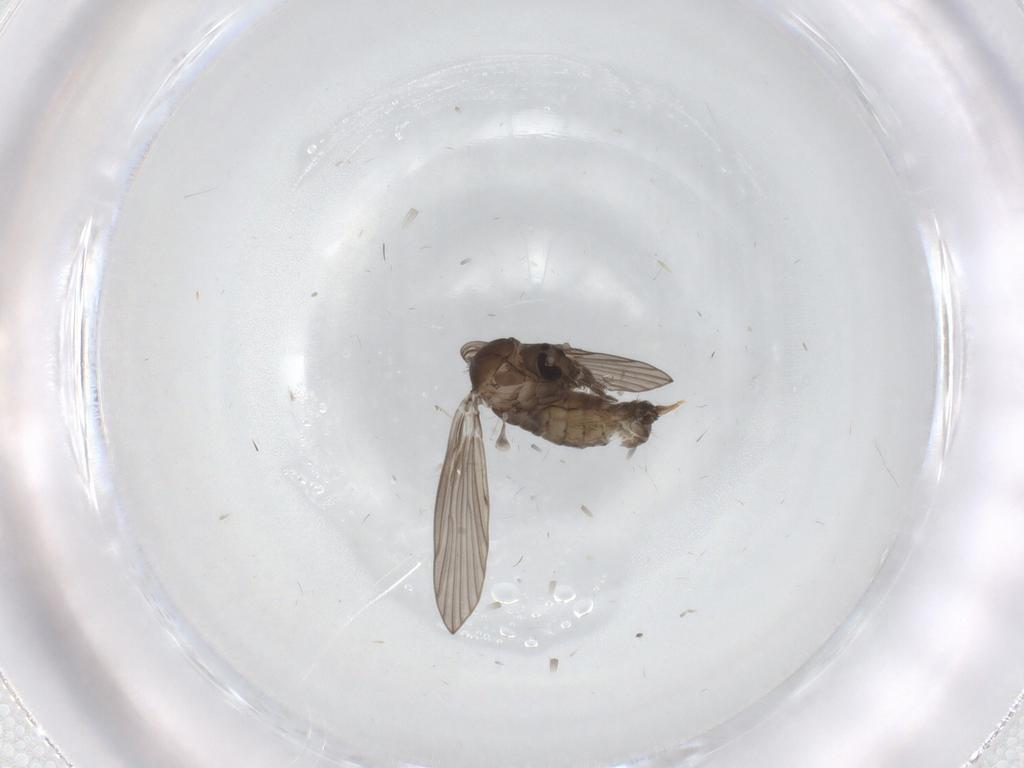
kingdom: Animalia
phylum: Arthropoda
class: Insecta
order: Diptera
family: Psychodidae
